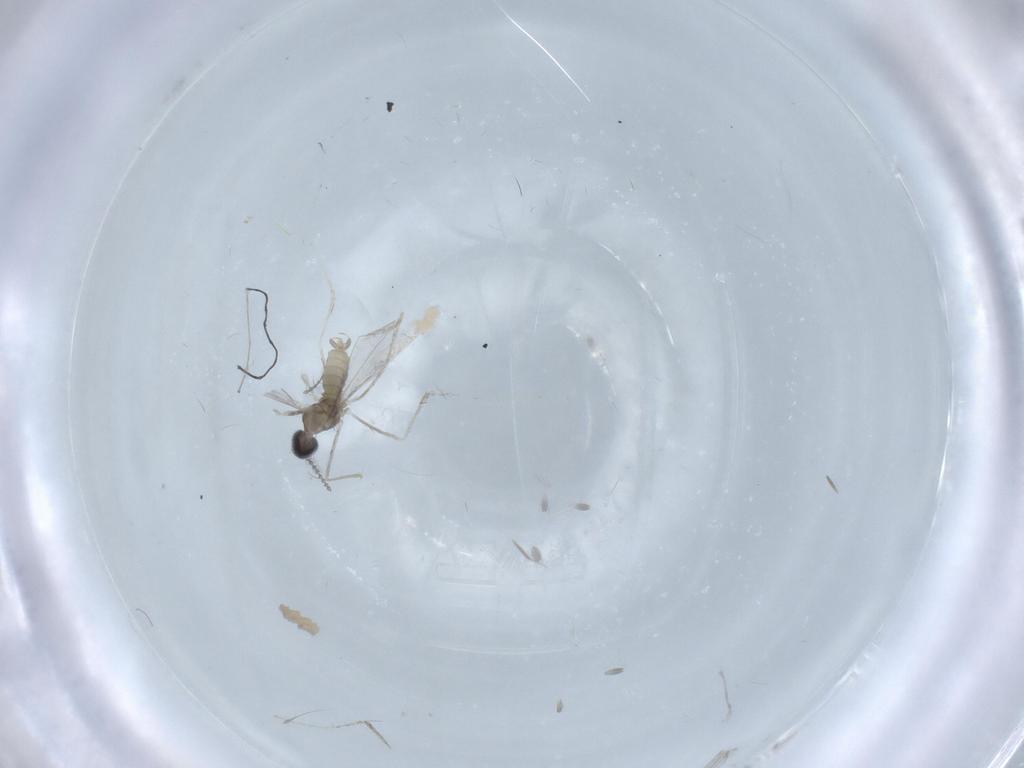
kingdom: Animalia
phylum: Arthropoda
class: Insecta
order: Diptera
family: Cecidomyiidae
